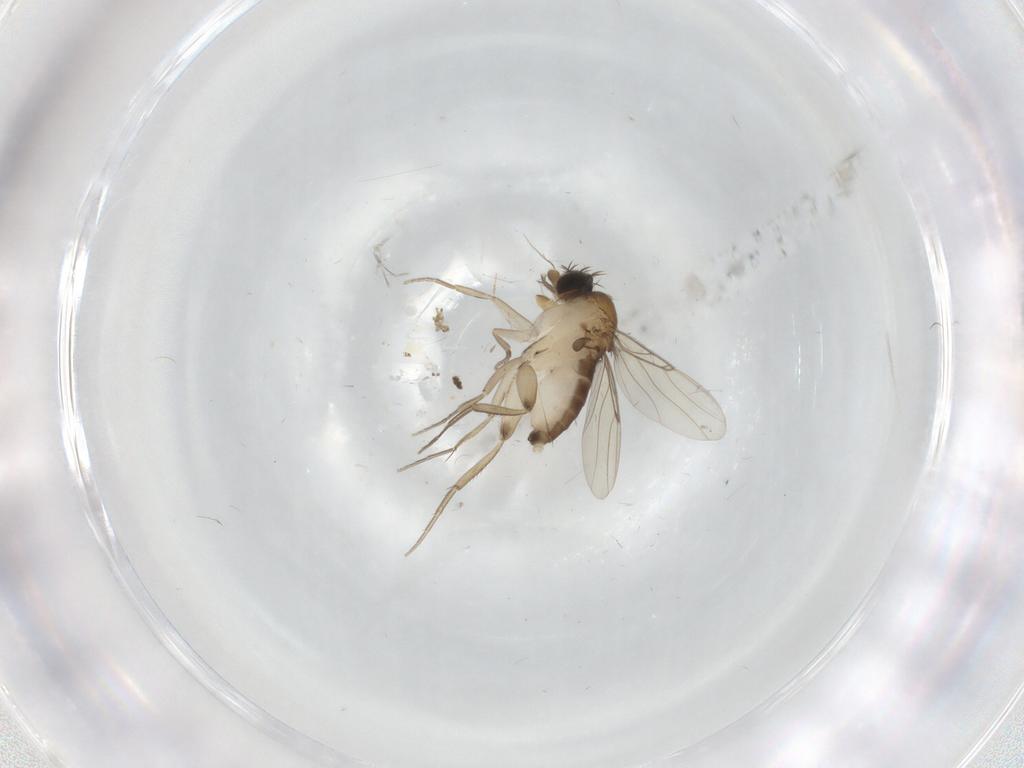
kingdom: Animalia
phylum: Arthropoda
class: Insecta
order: Diptera
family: Phoridae
